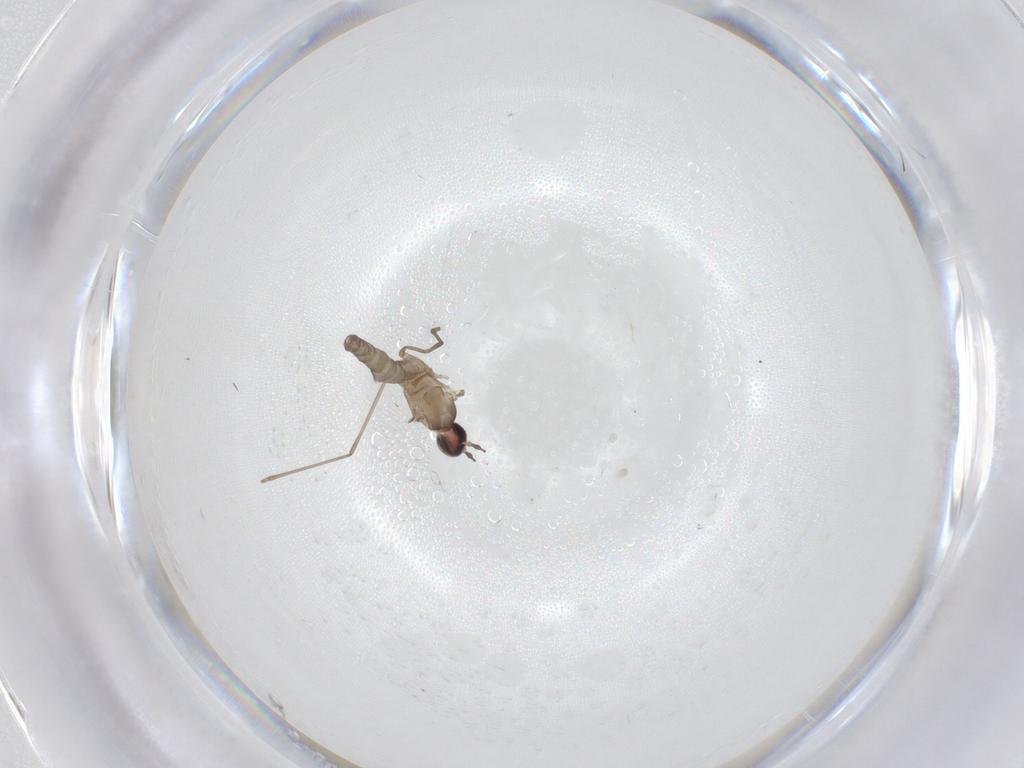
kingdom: Animalia
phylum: Arthropoda
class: Insecta
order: Diptera
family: Cecidomyiidae
